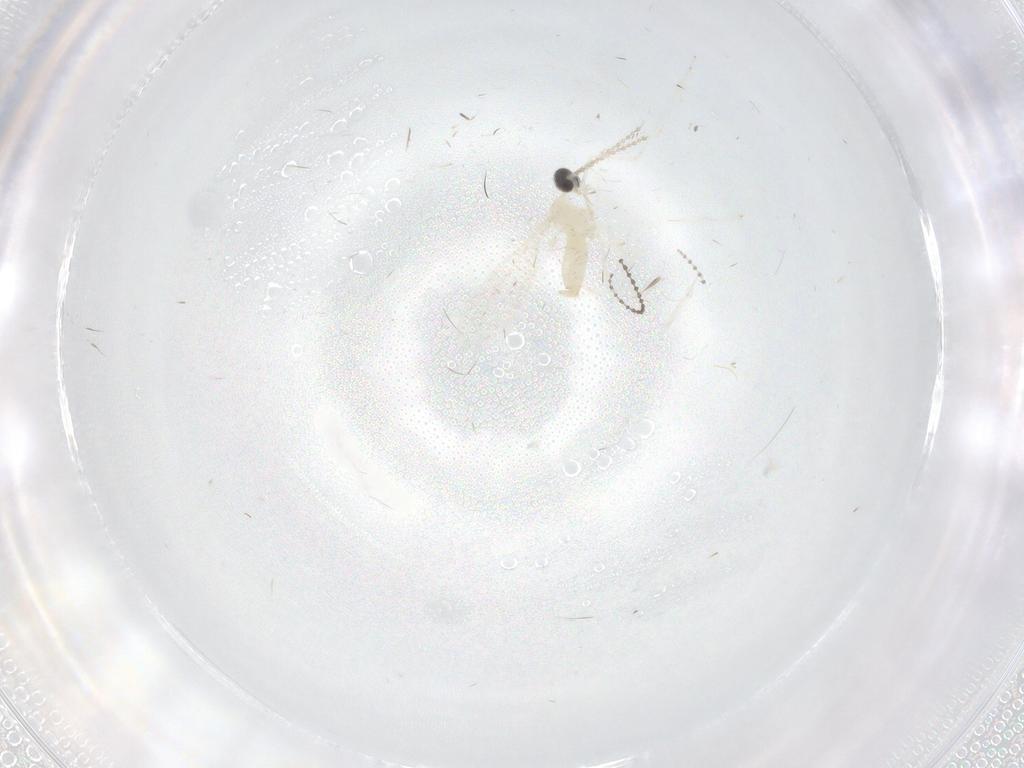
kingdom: Animalia
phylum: Arthropoda
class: Insecta
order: Diptera
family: Cecidomyiidae
